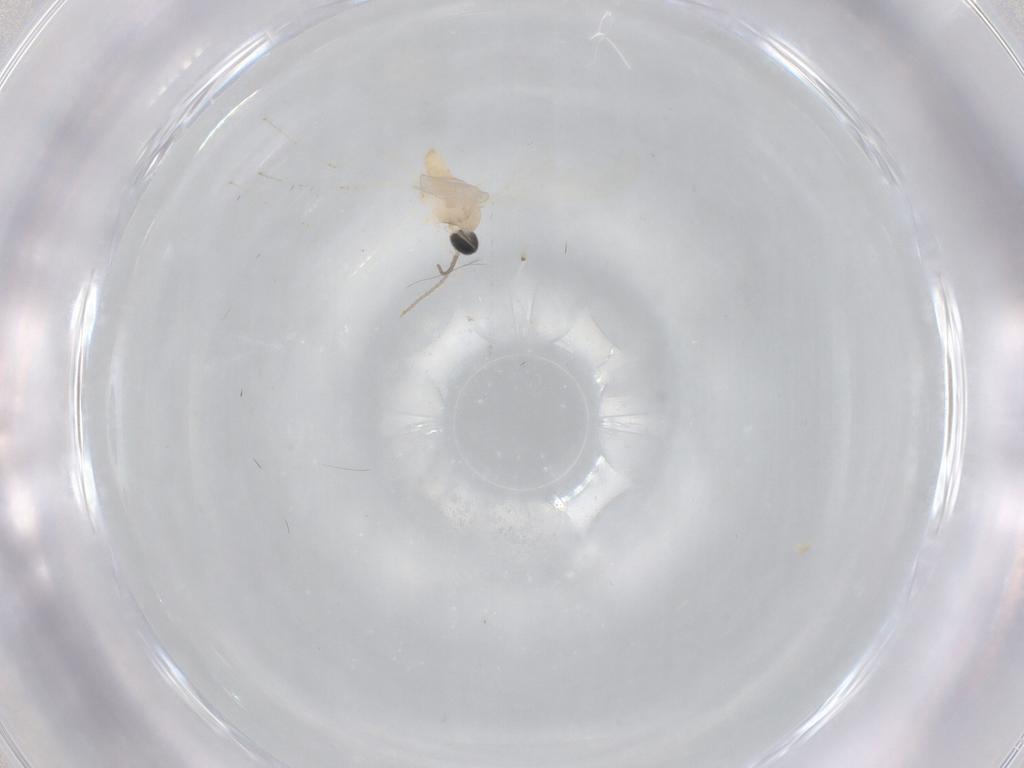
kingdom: Animalia
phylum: Arthropoda
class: Insecta
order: Diptera
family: Cecidomyiidae
